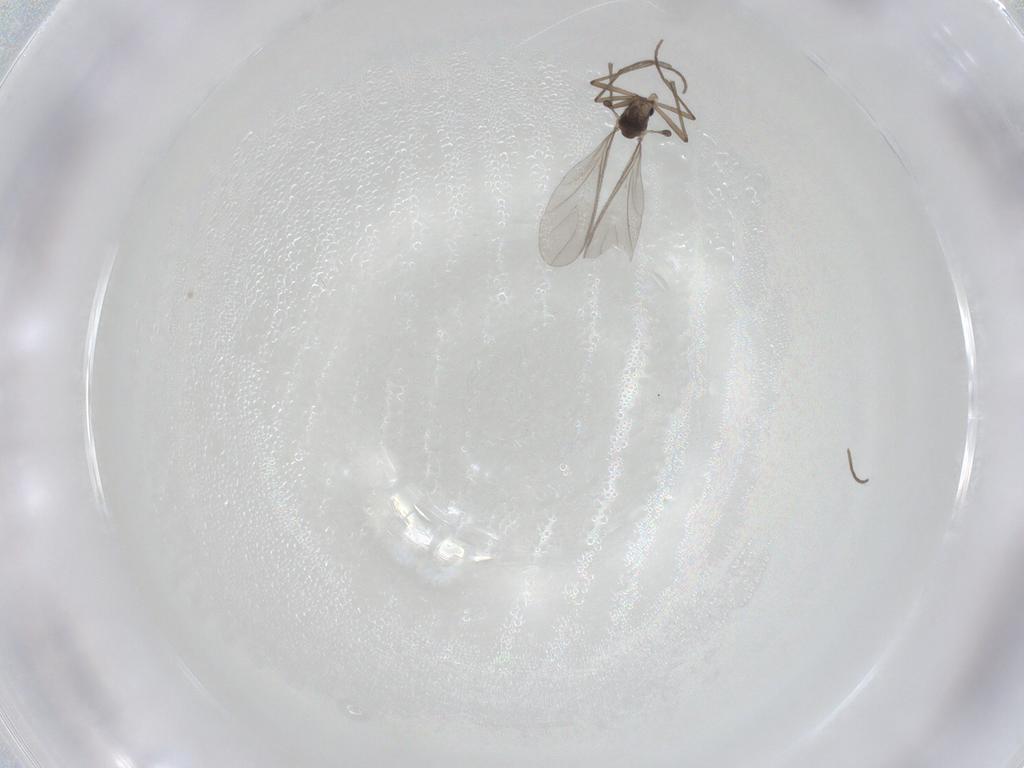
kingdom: Animalia
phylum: Arthropoda
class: Insecta
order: Diptera
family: Sciaridae
